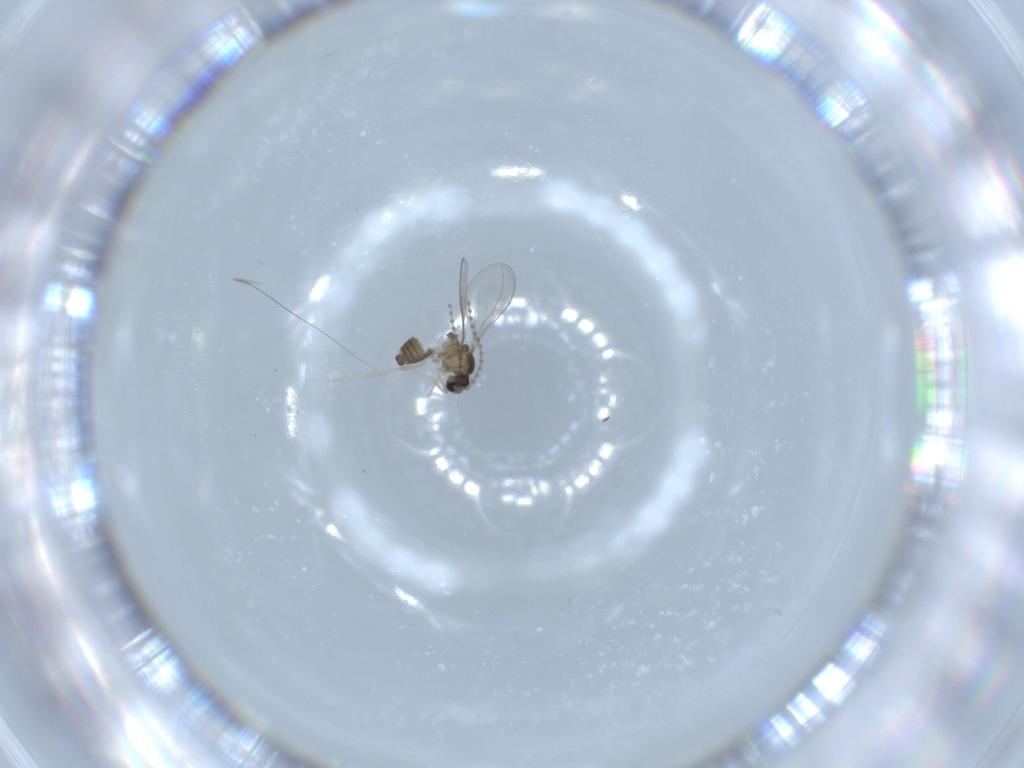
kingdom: Animalia
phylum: Arthropoda
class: Insecta
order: Diptera
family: Cecidomyiidae
